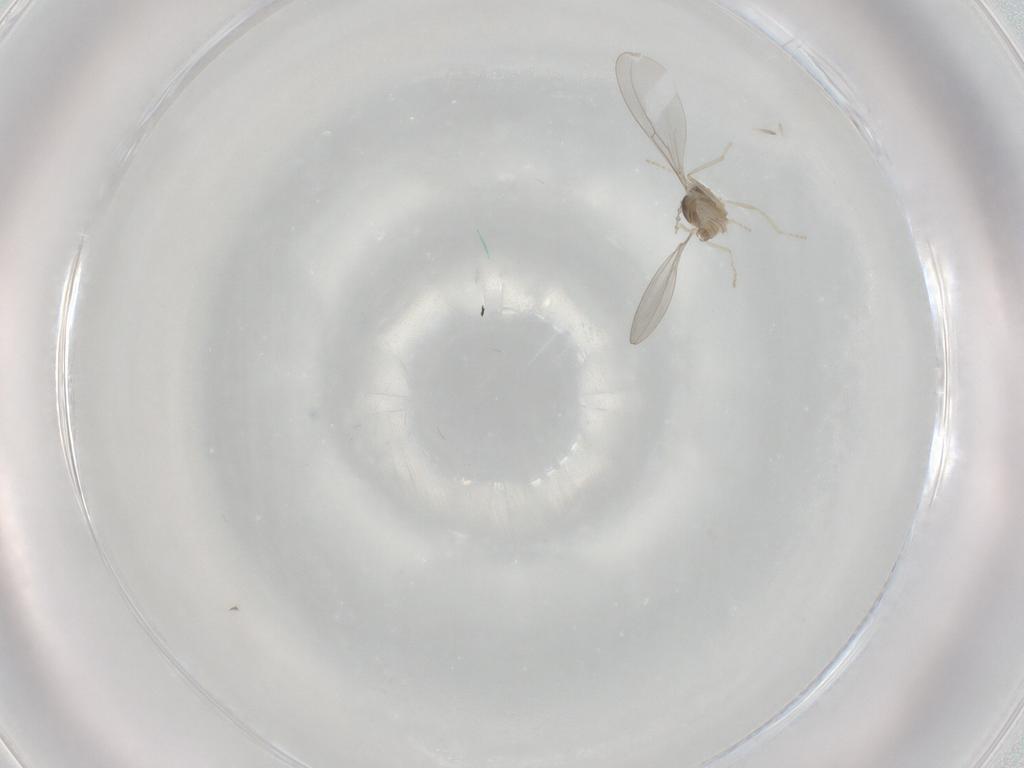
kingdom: Animalia
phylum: Arthropoda
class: Insecta
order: Diptera
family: Cecidomyiidae
